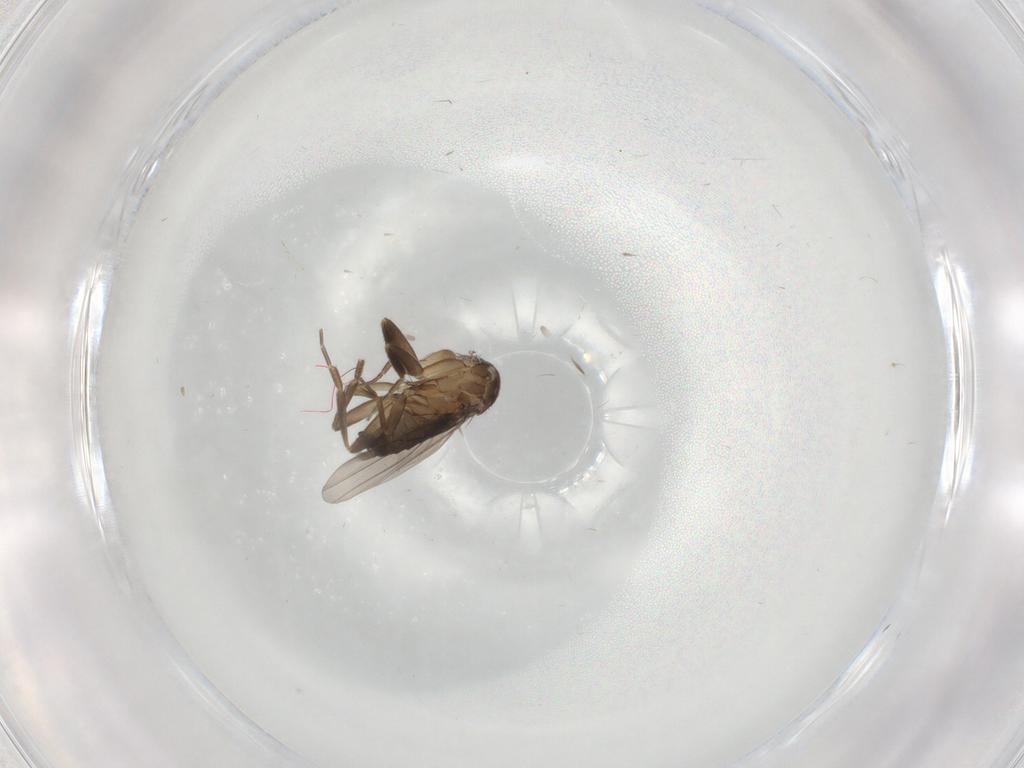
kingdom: Animalia
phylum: Arthropoda
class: Insecta
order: Diptera
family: Phoridae
